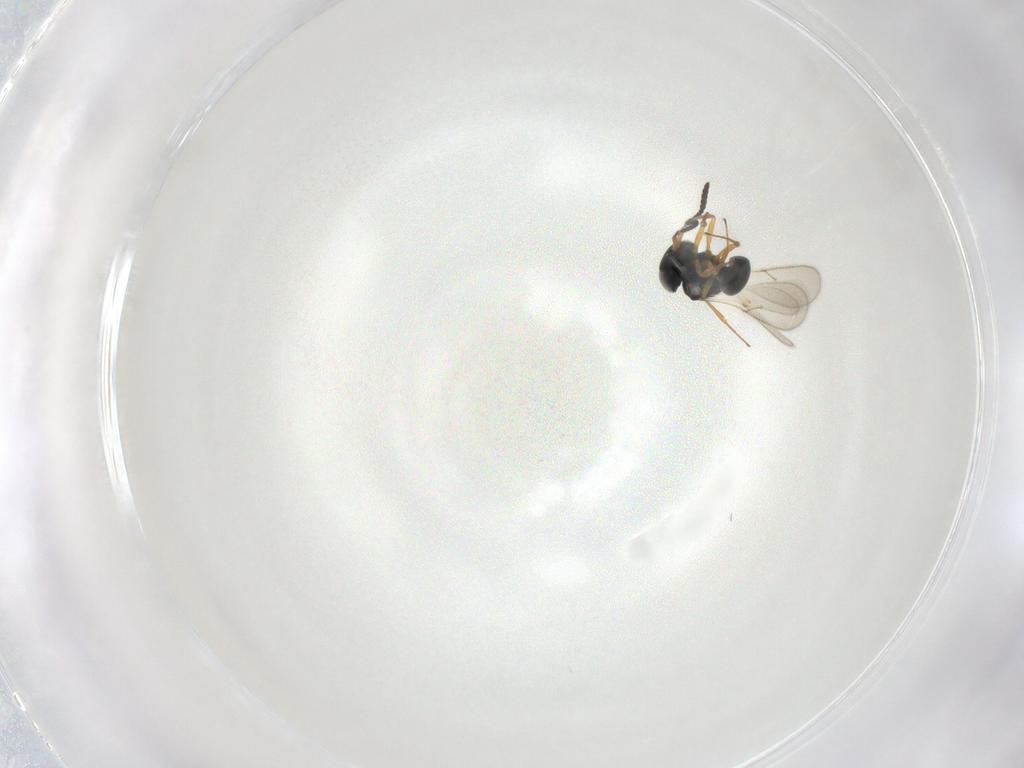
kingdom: Animalia
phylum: Arthropoda
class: Insecta
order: Hymenoptera
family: Scelionidae
